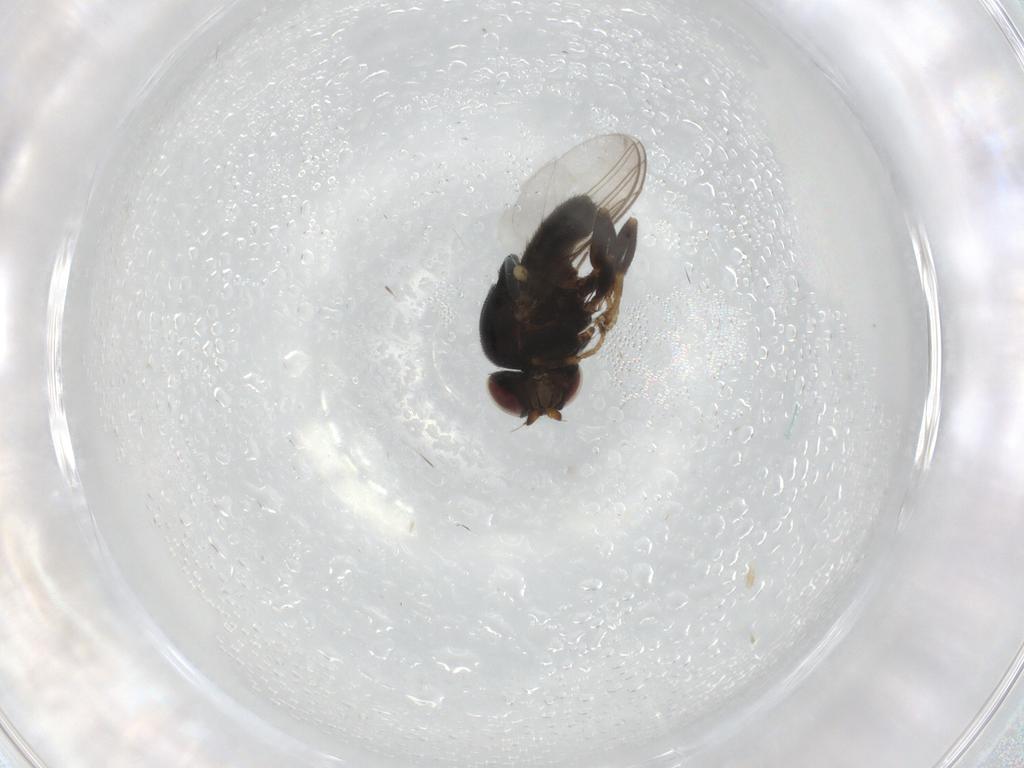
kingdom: Animalia
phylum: Arthropoda
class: Insecta
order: Diptera
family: Chloropidae
